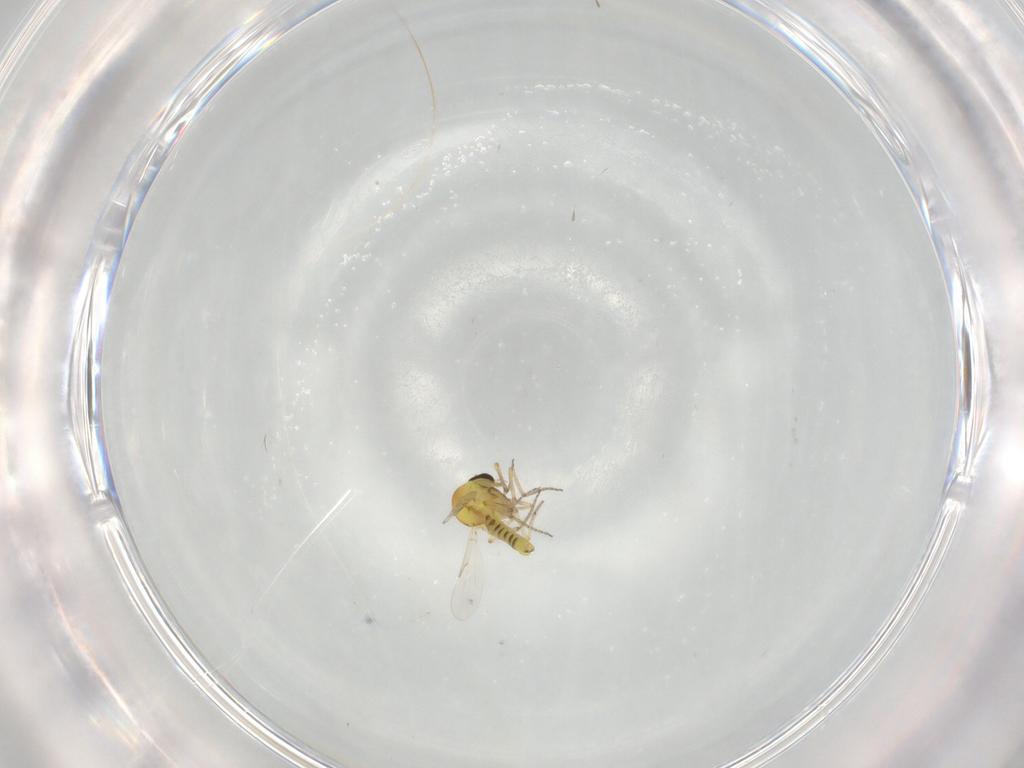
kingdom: Animalia
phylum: Arthropoda
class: Insecta
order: Diptera
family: Ceratopogonidae
